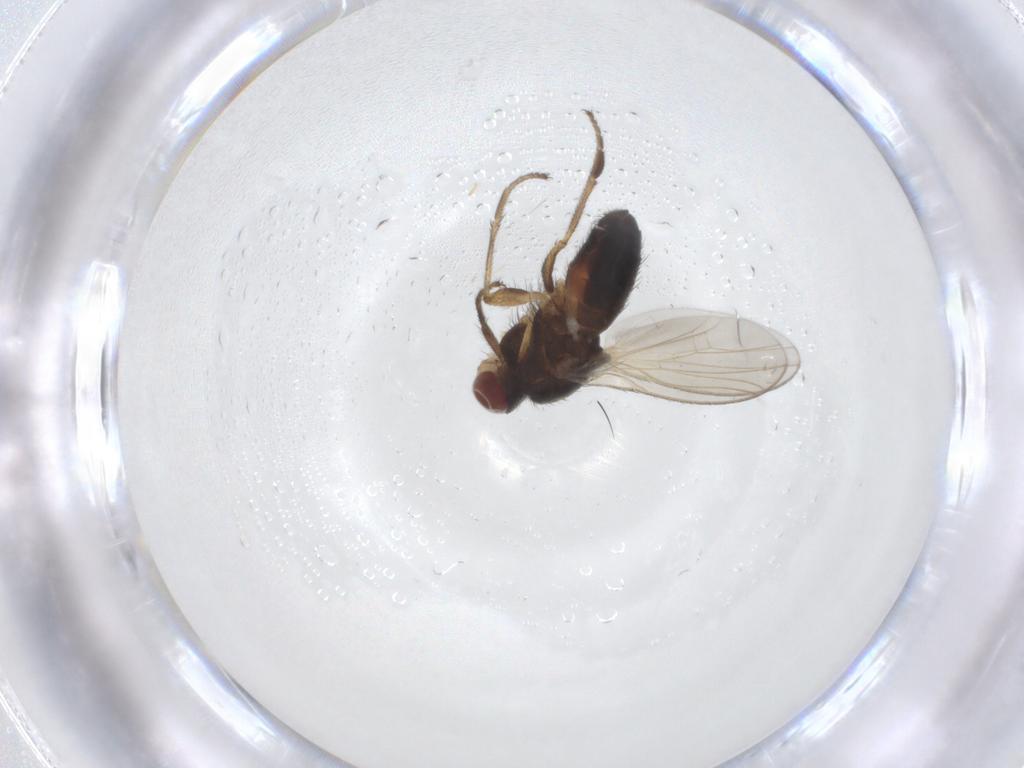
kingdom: Animalia
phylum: Arthropoda
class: Insecta
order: Diptera
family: Heleomyzidae
